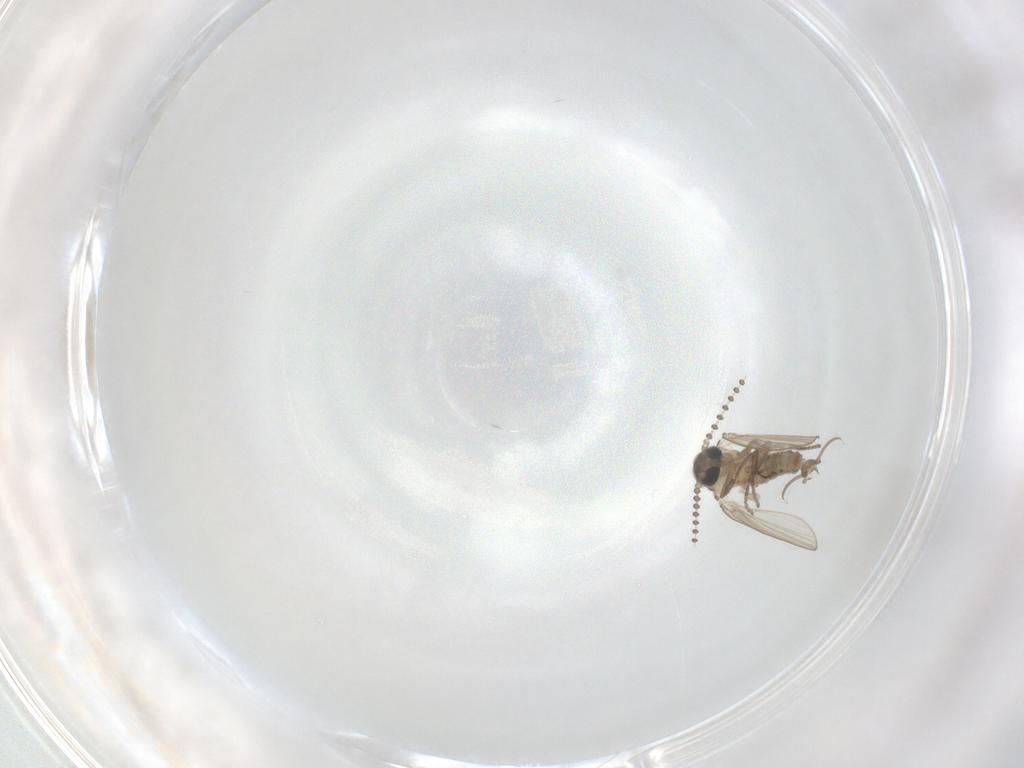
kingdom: Animalia
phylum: Arthropoda
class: Insecta
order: Diptera
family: Psychodidae
